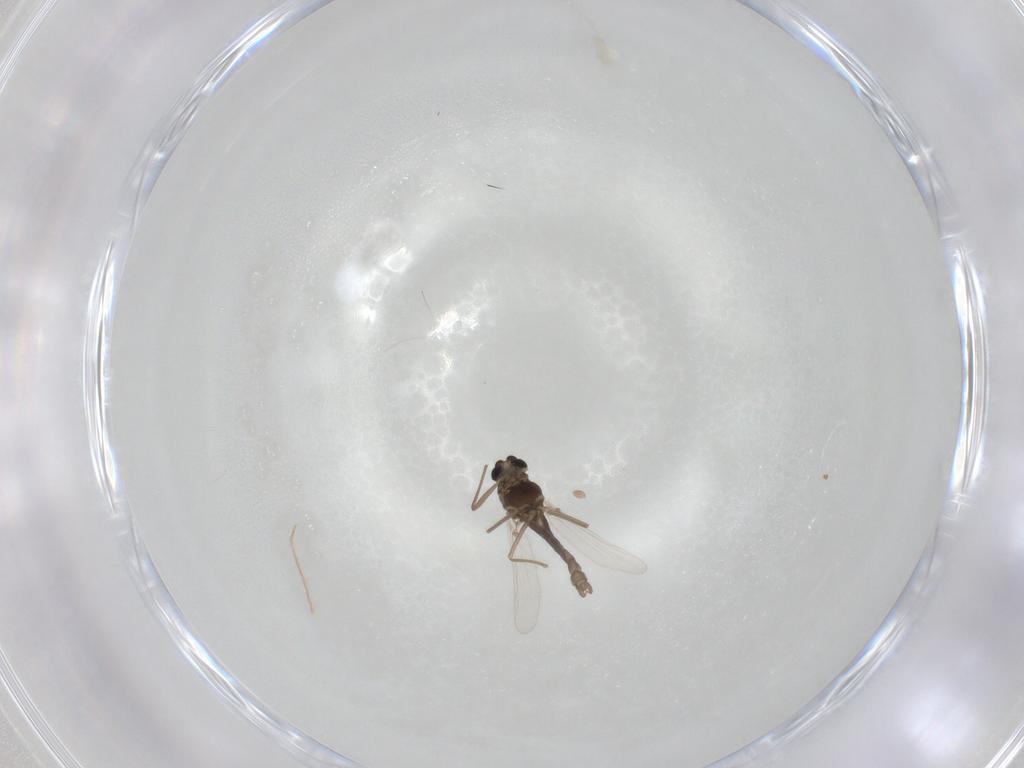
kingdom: Animalia
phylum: Arthropoda
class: Insecta
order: Diptera
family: Chironomidae
